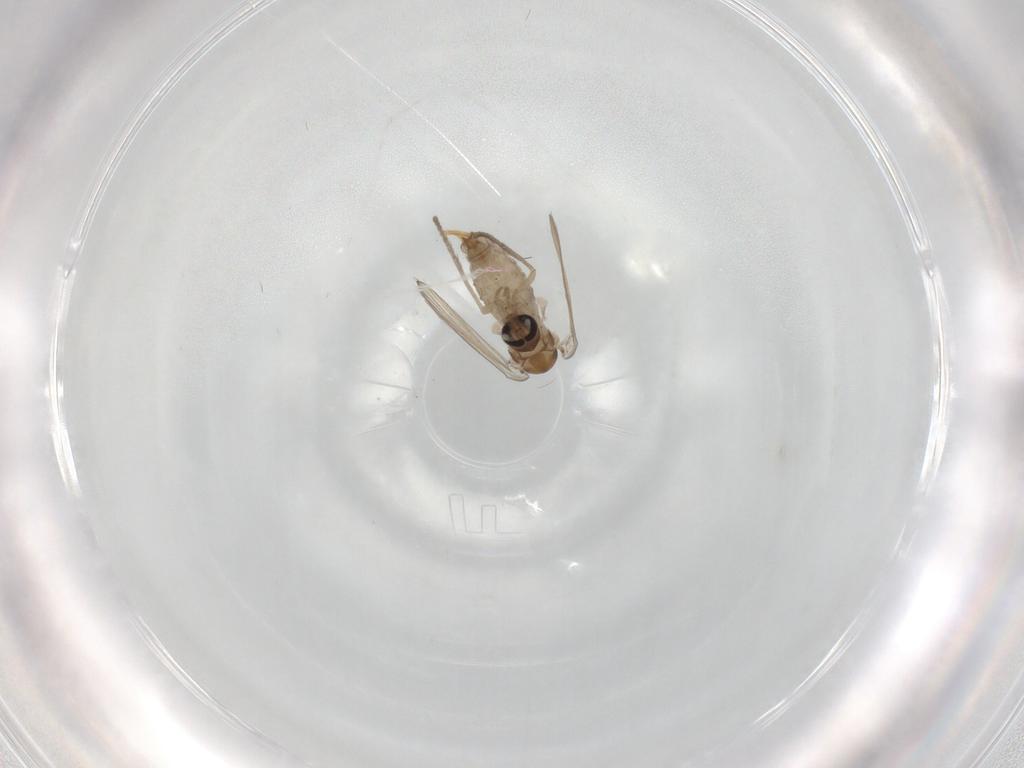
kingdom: Animalia
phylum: Arthropoda
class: Insecta
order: Diptera
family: Psychodidae
